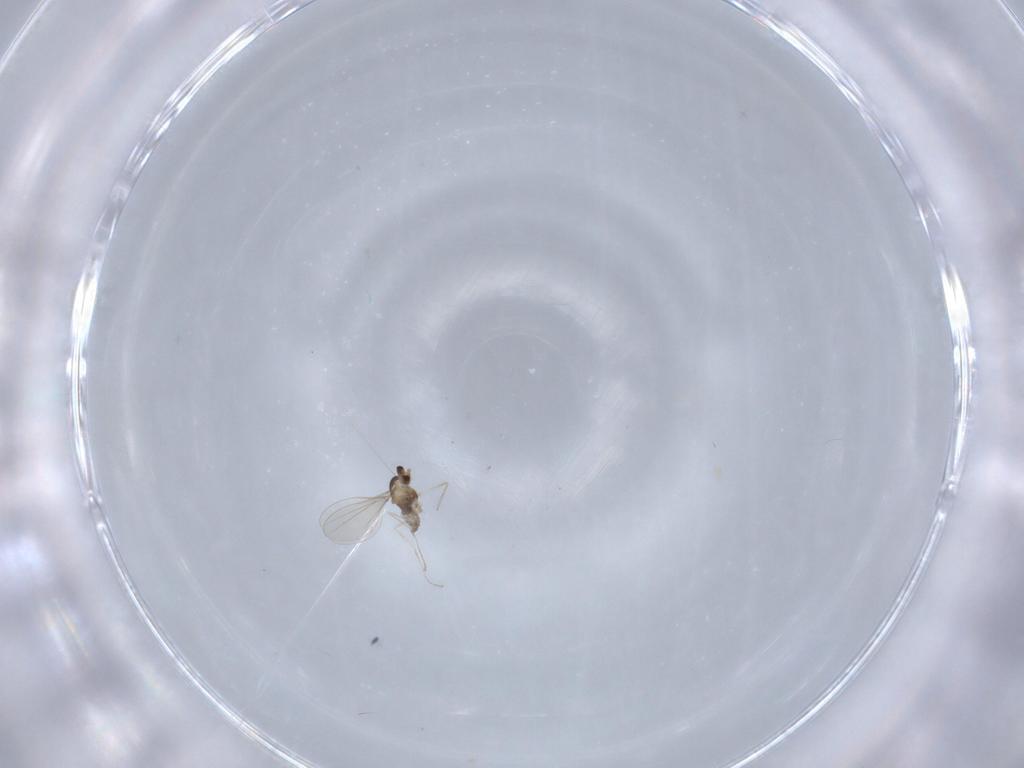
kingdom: Animalia
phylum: Arthropoda
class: Insecta
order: Diptera
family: Cecidomyiidae
